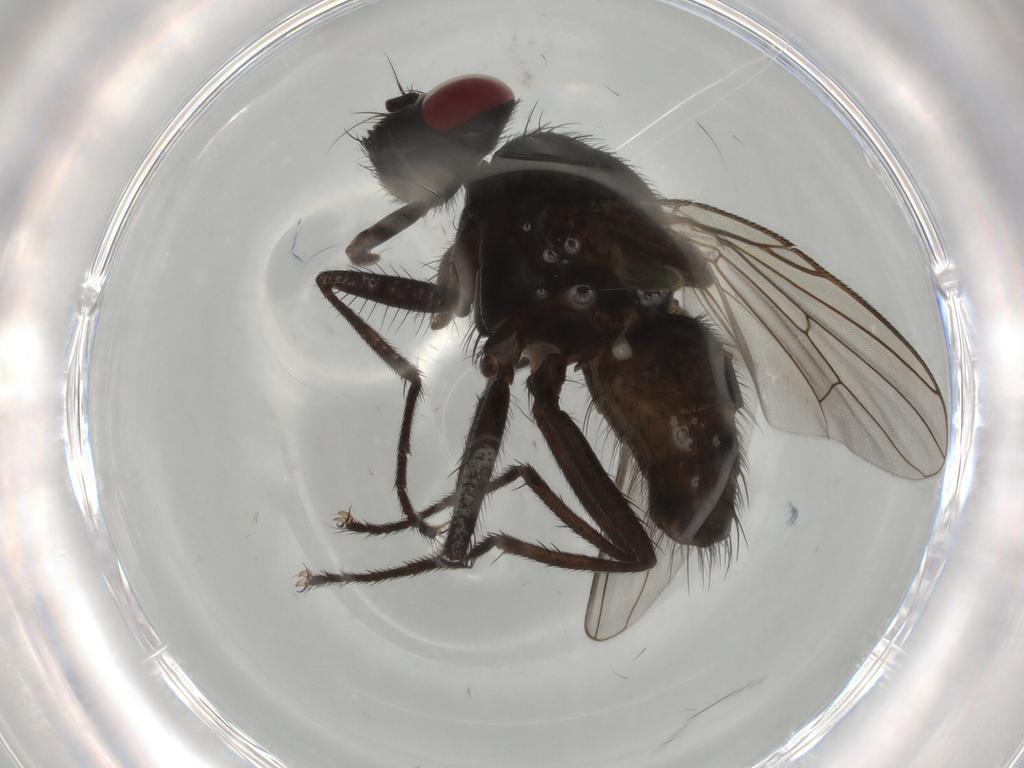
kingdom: Animalia
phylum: Arthropoda
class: Insecta
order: Diptera
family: Muscidae
